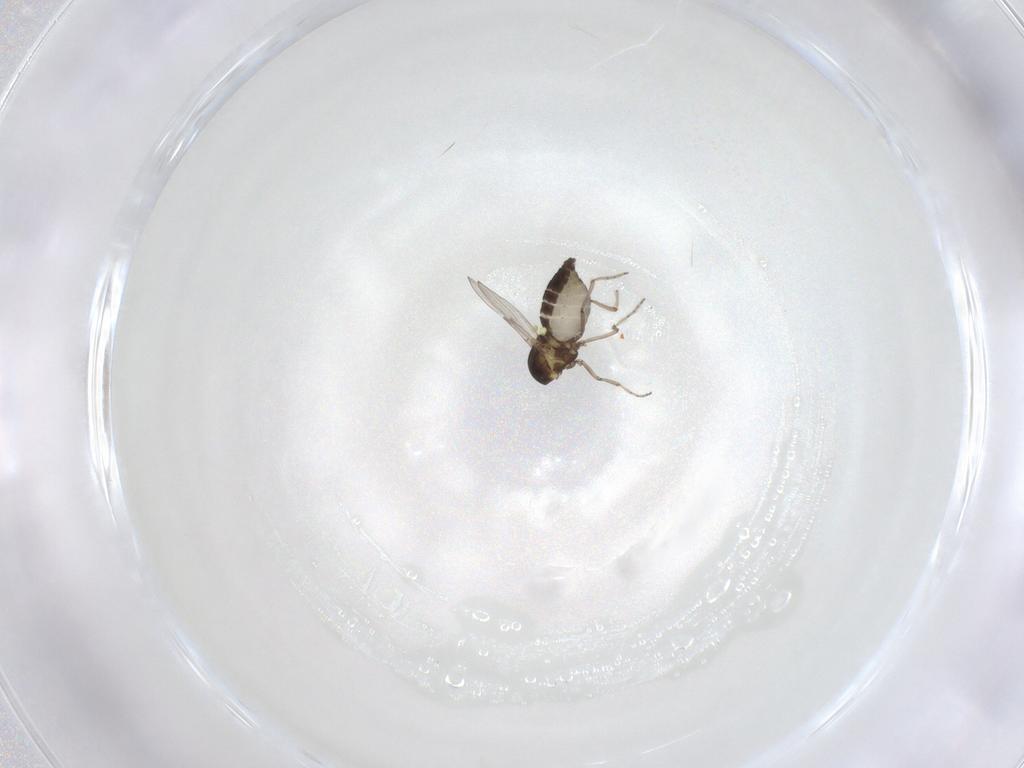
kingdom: Animalia
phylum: Arthropoda
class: Insecta
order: Diptera
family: Ceratopogonidae
